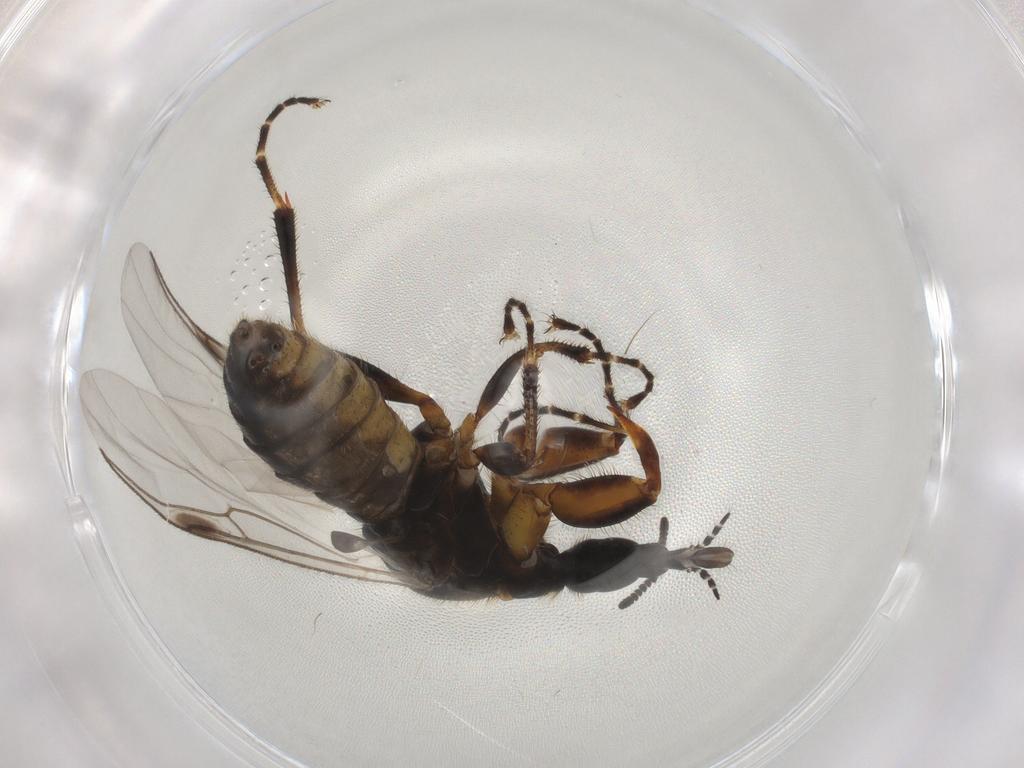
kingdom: Animalia
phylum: Arthropoda
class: Insecta
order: Diptera
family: Bibionidae
